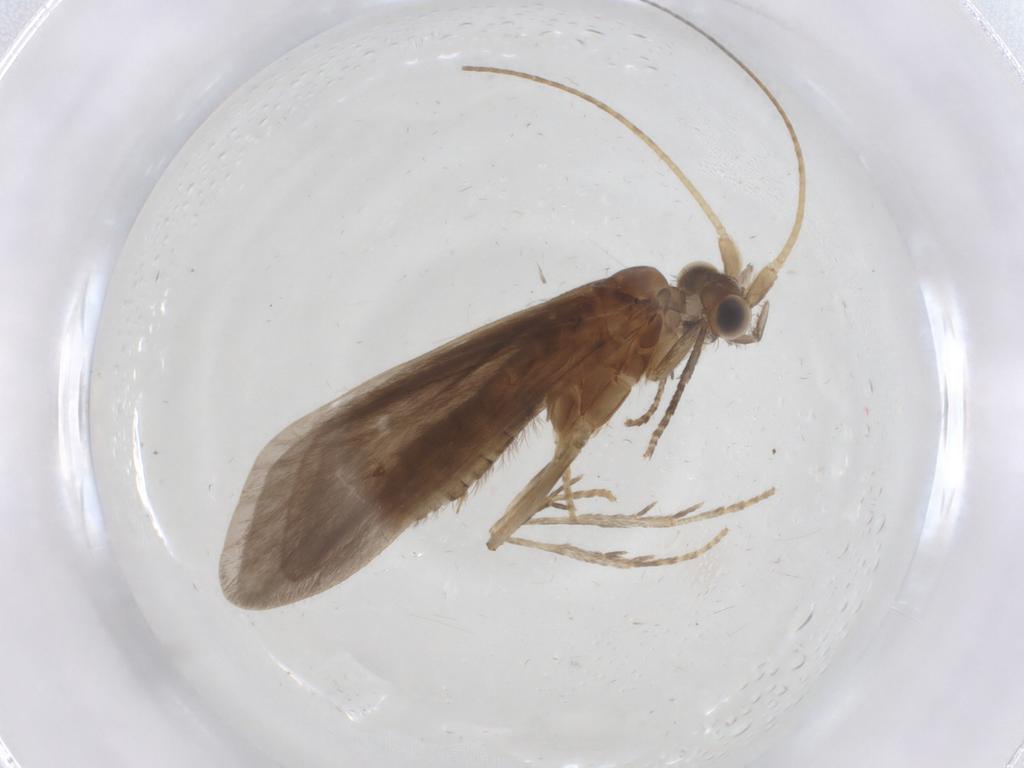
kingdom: Animalia
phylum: Arthropoda
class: Insecta
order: Trichoptera
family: Helicopsychidae
